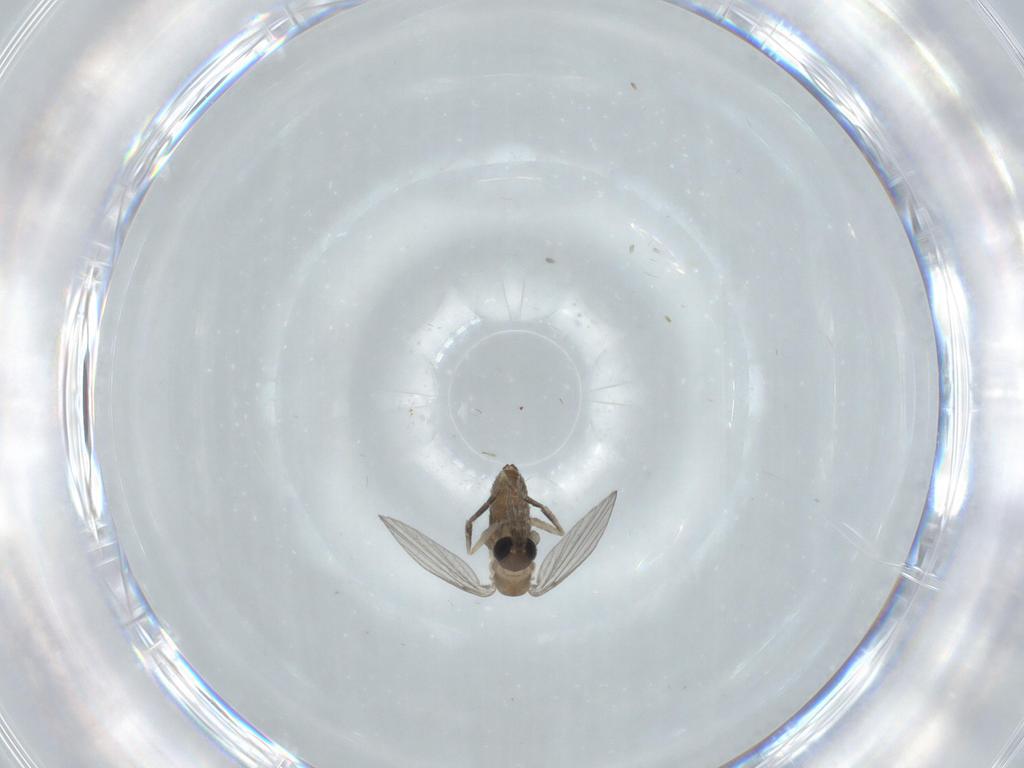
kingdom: Animalia
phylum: Arthropoda
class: Insecta
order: Diptera
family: Psychodidae
